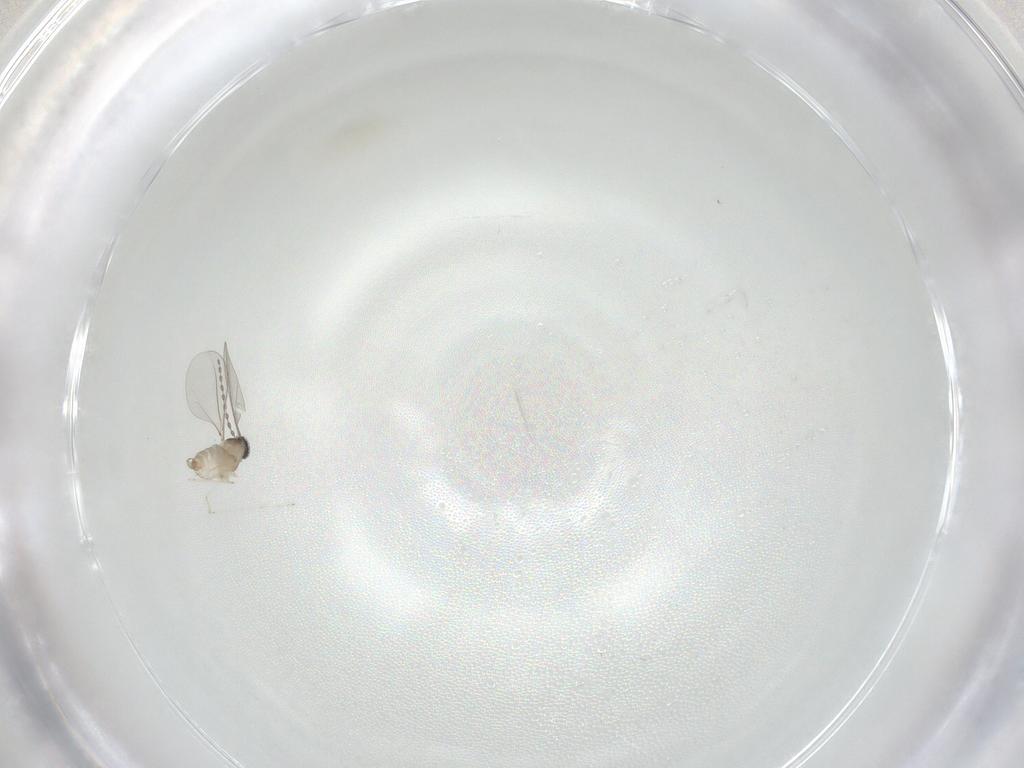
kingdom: Animalia
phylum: Arthropoda
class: Insecta
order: Diptera
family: Cecidomyiidae
